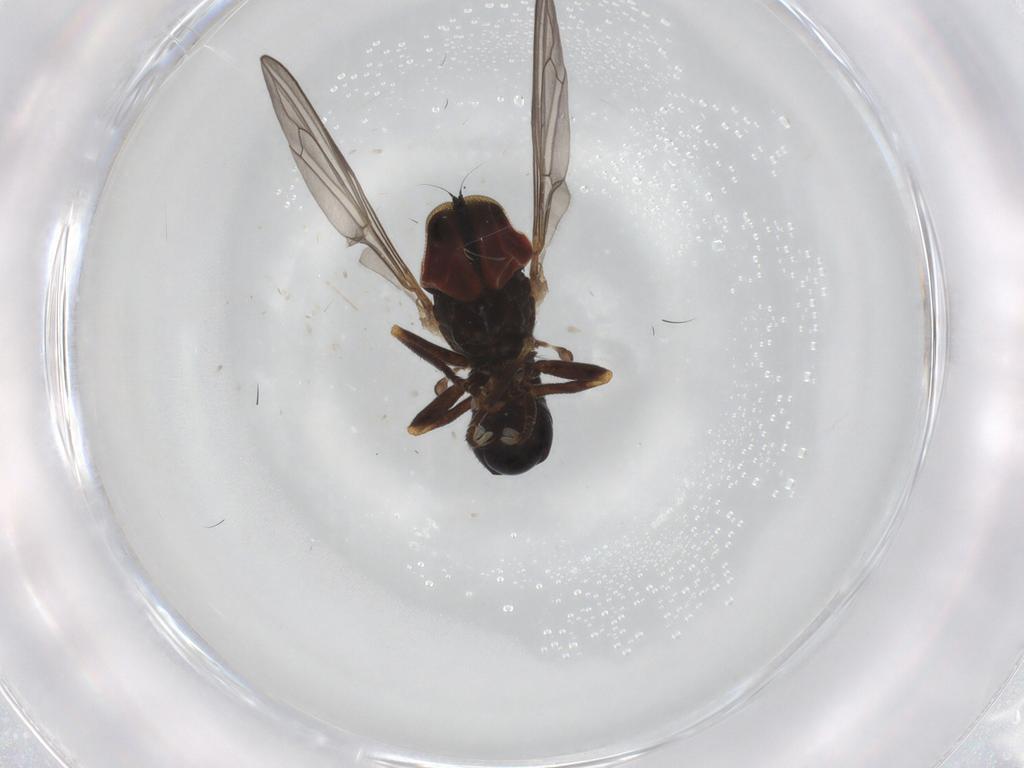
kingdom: Animalia
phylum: Arthropoda
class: Insecta
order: Diptera
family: Pipunculidae
